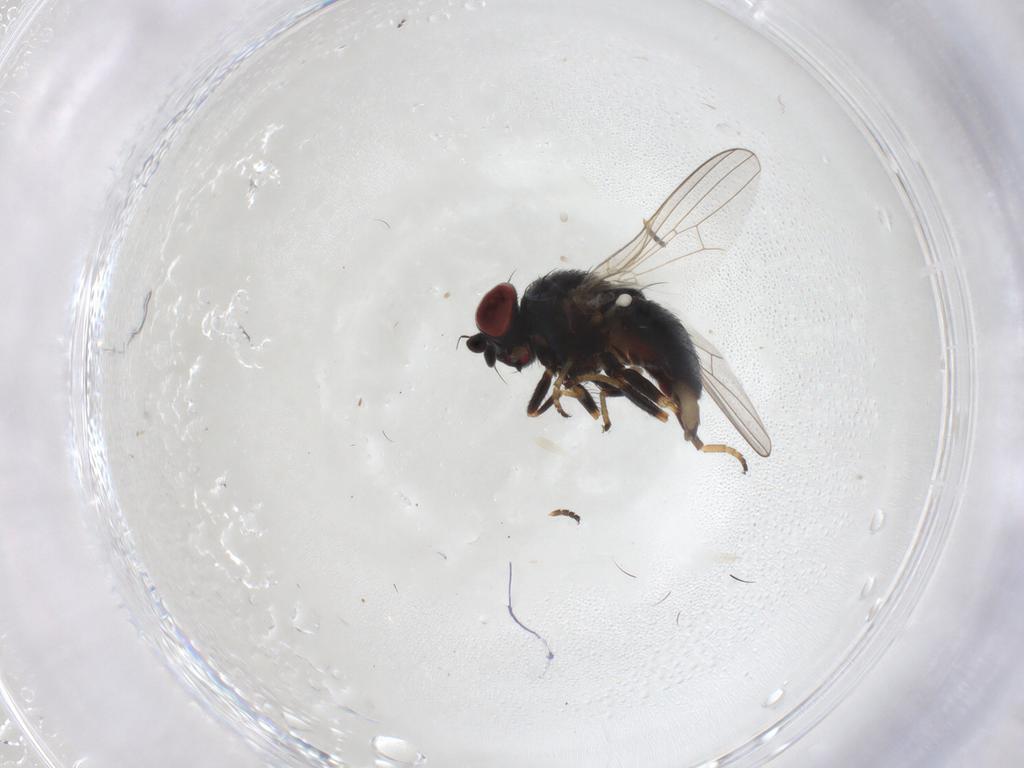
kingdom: Animalia
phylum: Arthropoda
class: Insecta
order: Diptera
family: Chamaemyiidae
